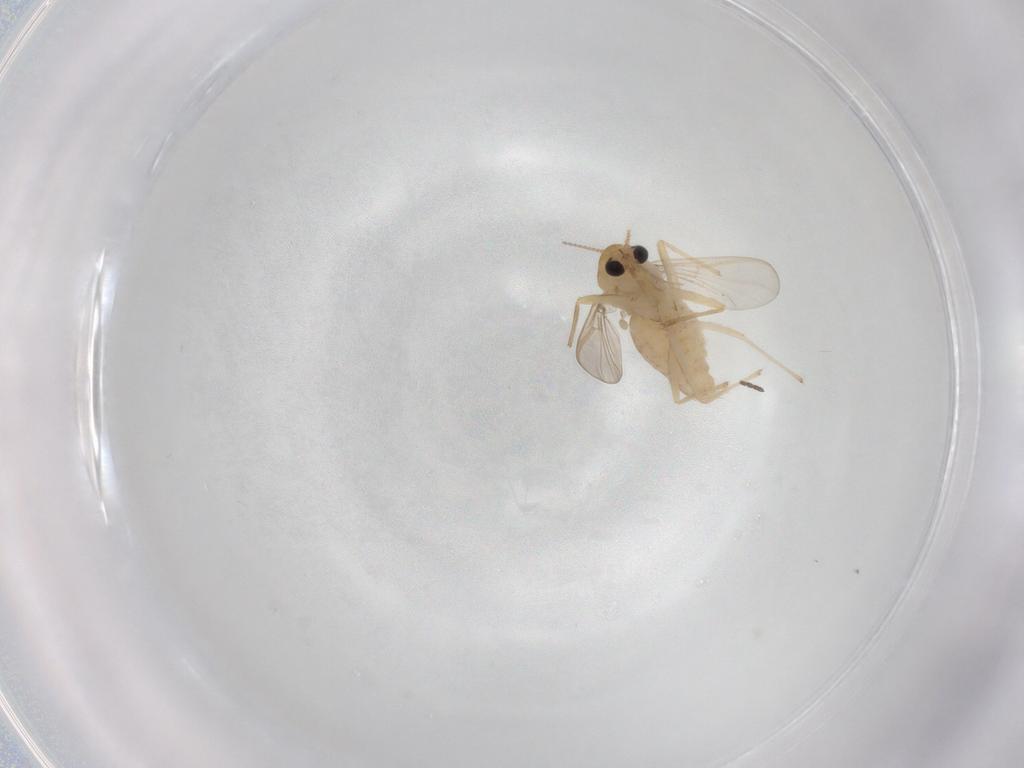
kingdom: Animalia
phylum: Arthropoda
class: Insecta
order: Diptera
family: Chironomidae
